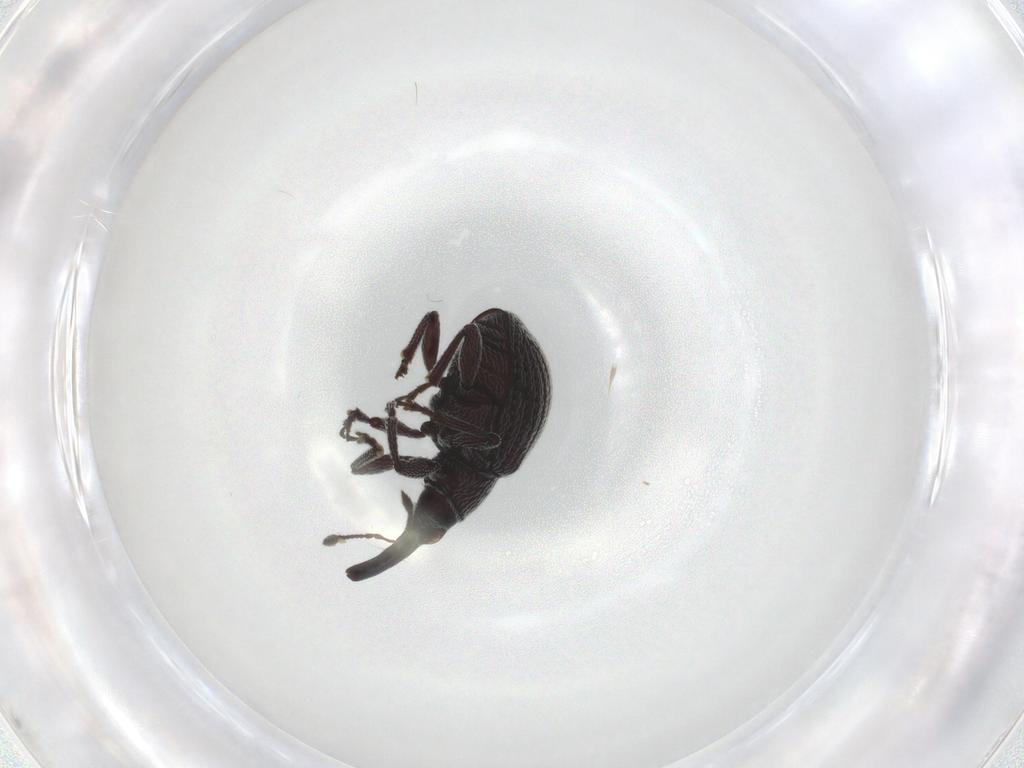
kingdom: Animalia
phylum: Arthropoda
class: Insecta
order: Coleoptera
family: Brentidae
